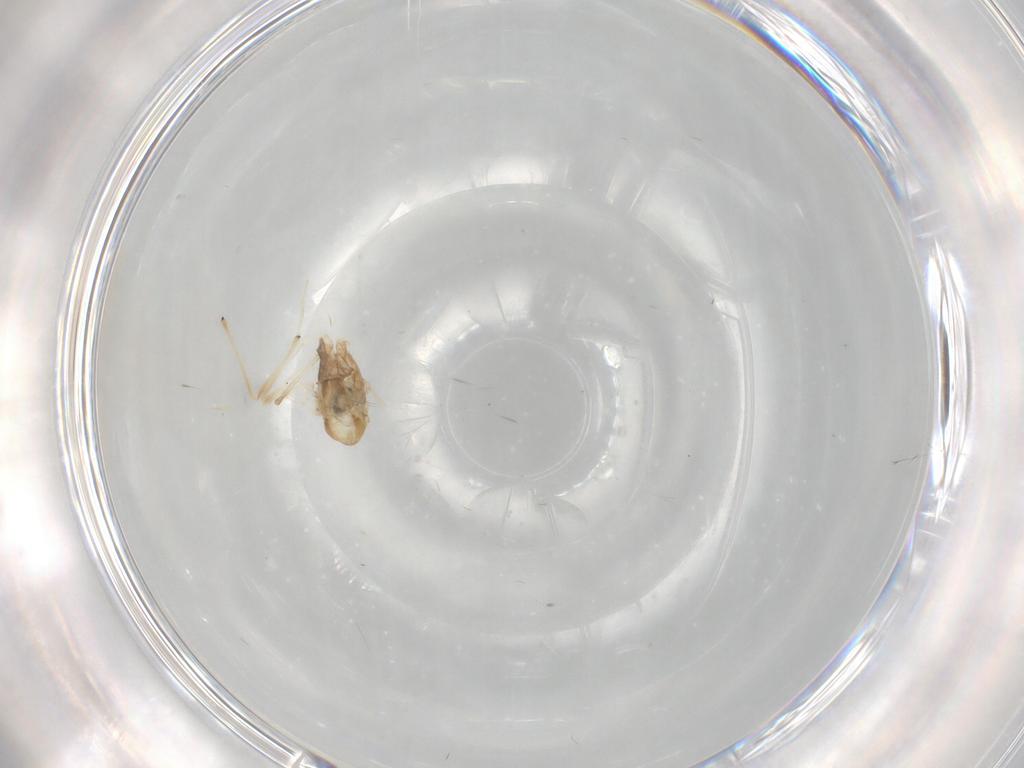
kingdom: Animalia
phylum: Arthropoda
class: Insecta
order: Diptera
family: Chironomidae
